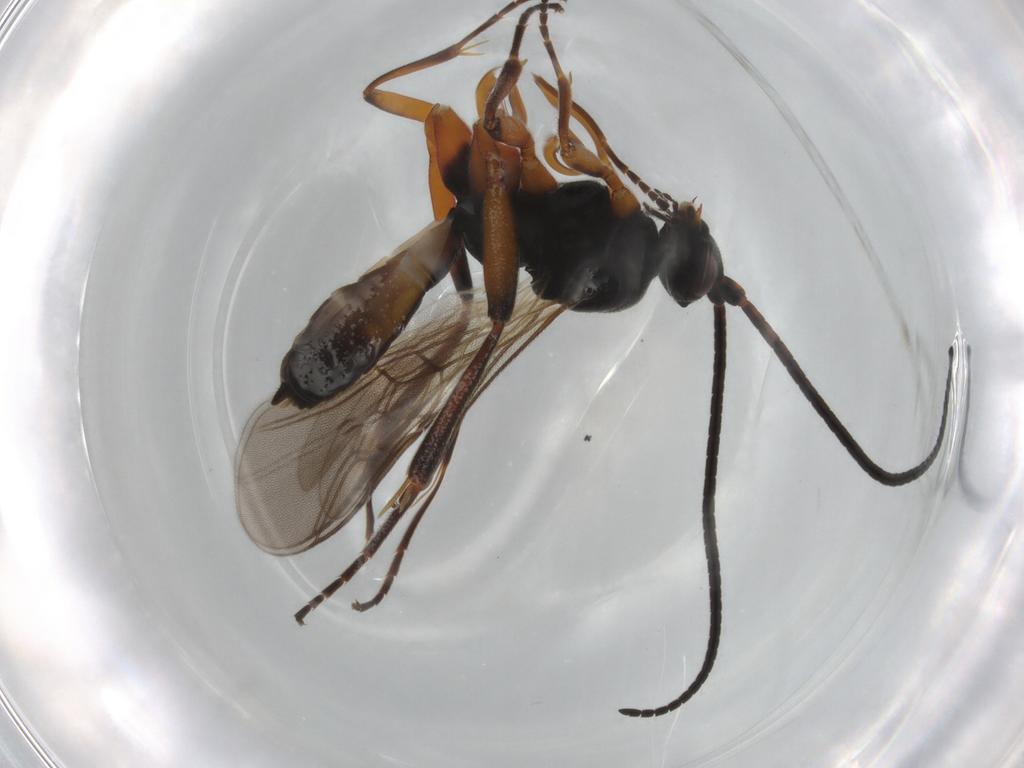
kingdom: Animalia
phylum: Arthropoda
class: Insecta
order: Hymenoptera
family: Braconidae
